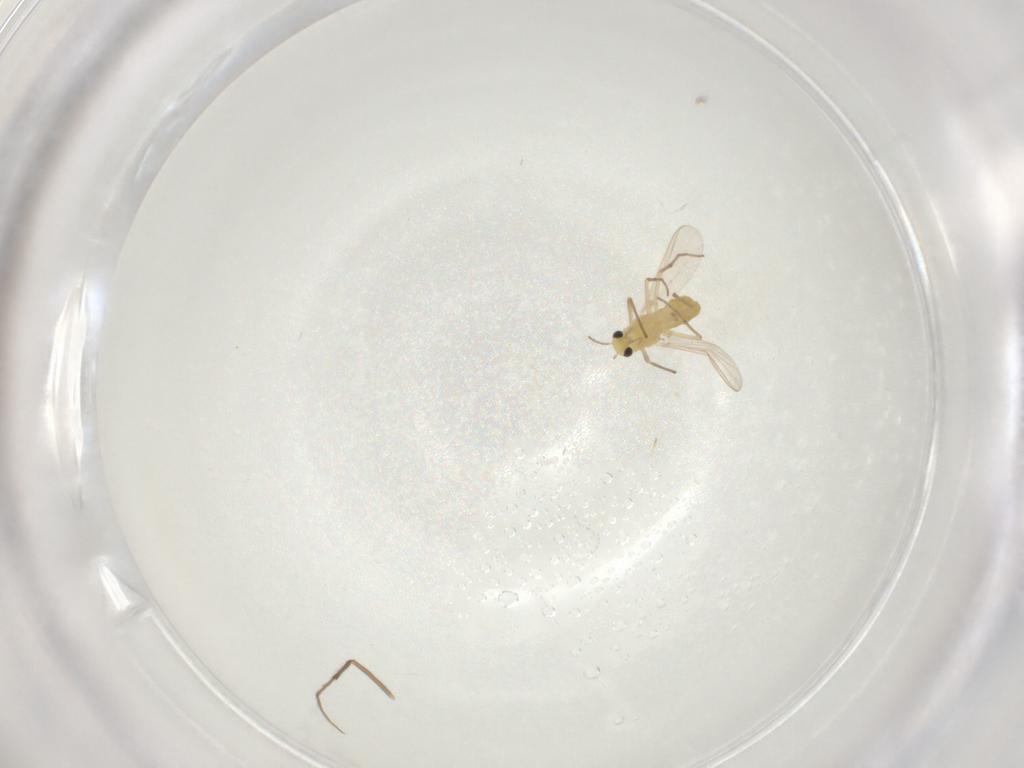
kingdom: Animalia
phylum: Arthropoda
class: Insecta
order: Diptera
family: Chironomidae
